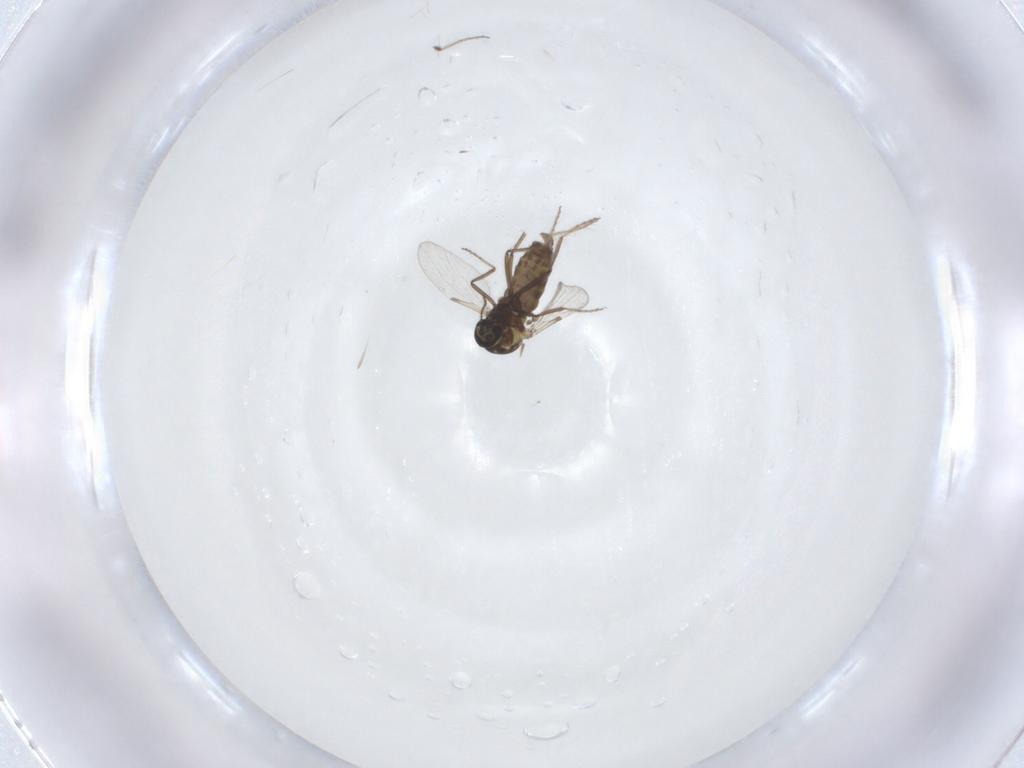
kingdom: Animalia
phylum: Arthropoda
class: Insecta
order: Diptera
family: Ceratopogonidae
